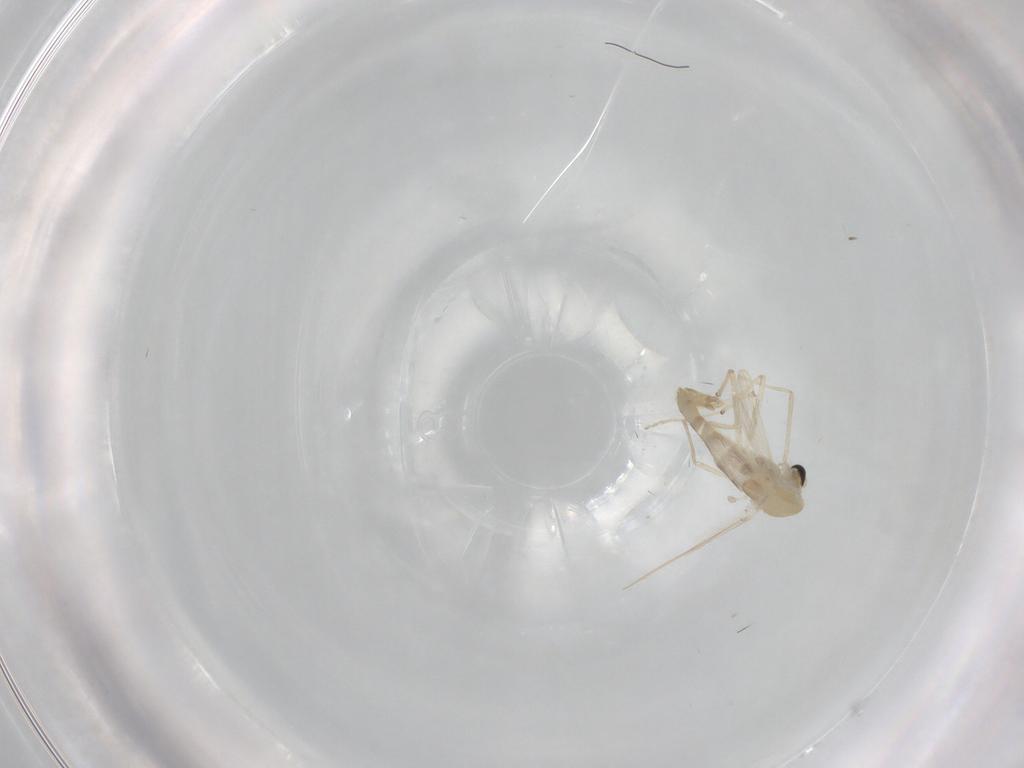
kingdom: Animalia
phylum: Arthropoda
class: Insecta
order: Diptera
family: Chironomidae
